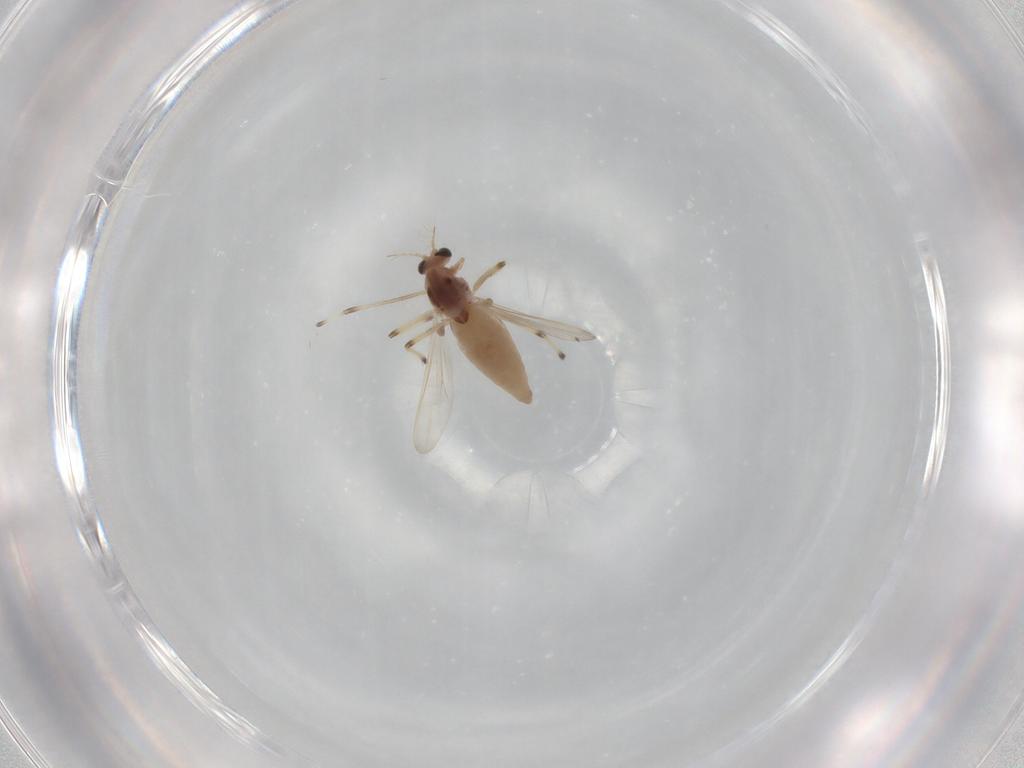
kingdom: Animalia
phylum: Arthropoda
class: Insecta
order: Diptera
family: Chironomidae
